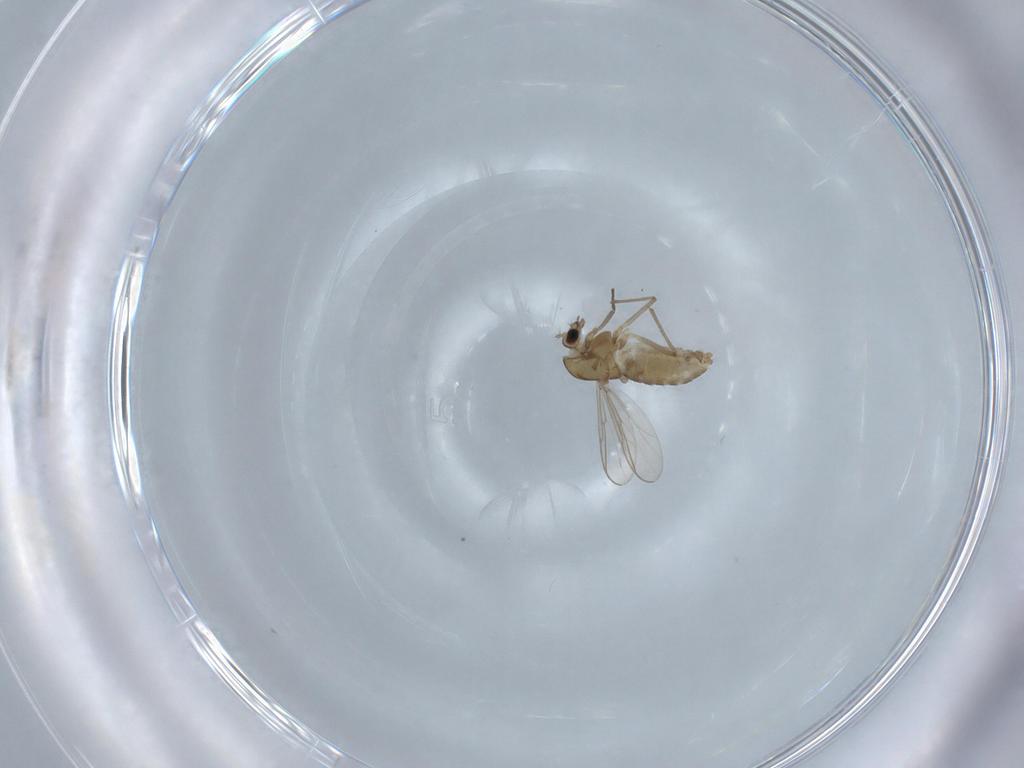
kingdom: Animalia
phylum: Arthropoda
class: Insecta
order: Diptera
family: Chironomidae
